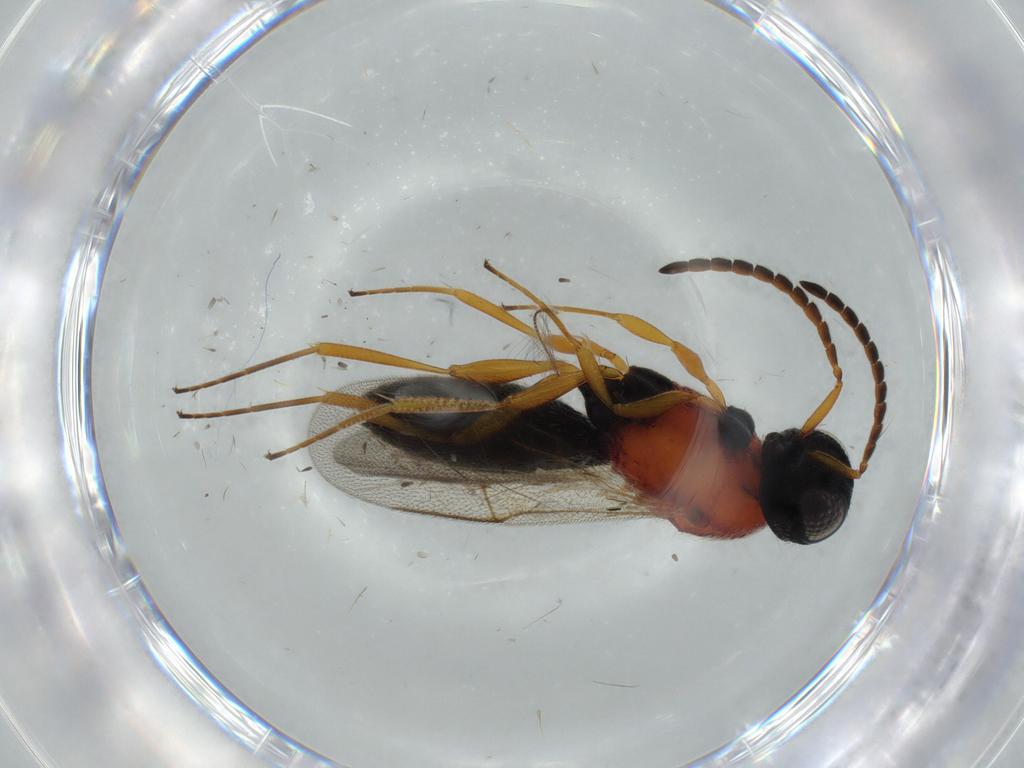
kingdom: Animalia
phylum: Arthropoda
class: Insecta
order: Hymenoptera
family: Scelionidae
